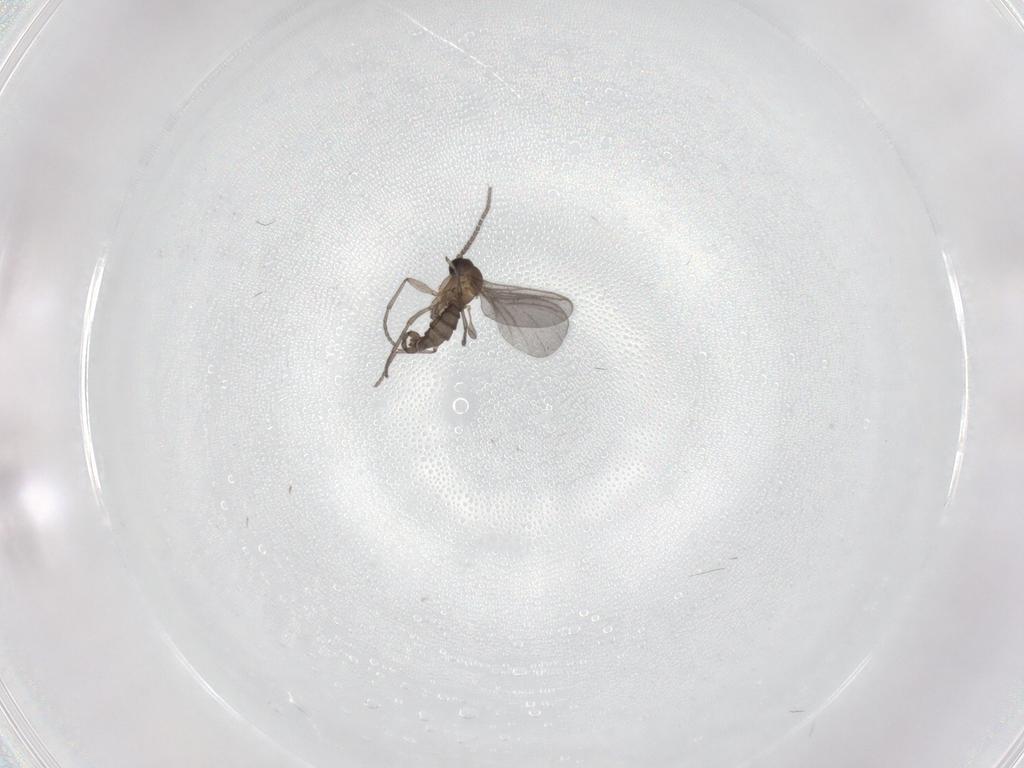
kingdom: Animalia
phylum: Arthropoda
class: Insecta
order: Diptera
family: Sciaridae
